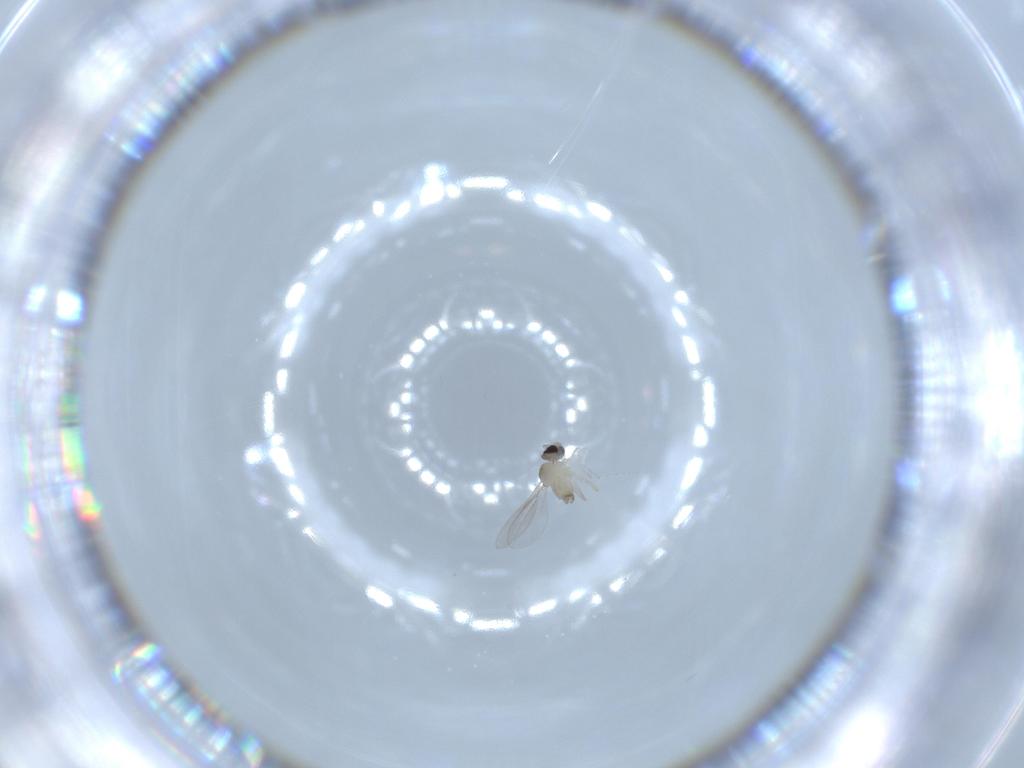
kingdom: Animalia
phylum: Arthropoda
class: Insecta
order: Diptera
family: Cecidomyiidae
